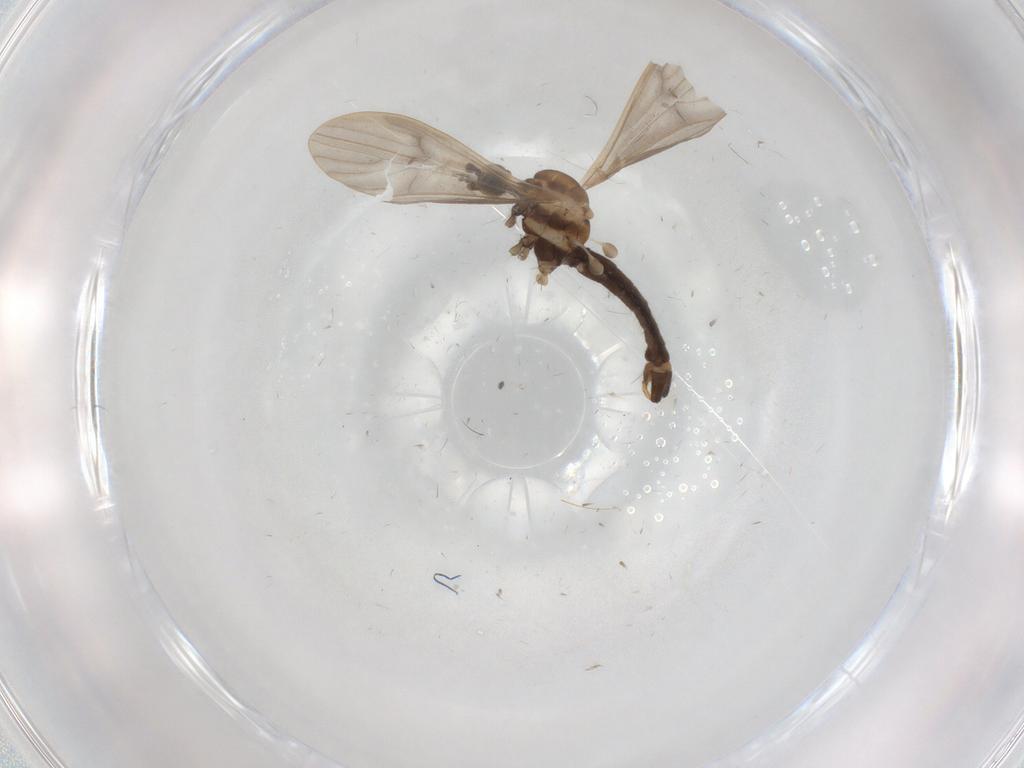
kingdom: Animalia
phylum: Arthropoda
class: Insecta
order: Diptera
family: Limoniidae
